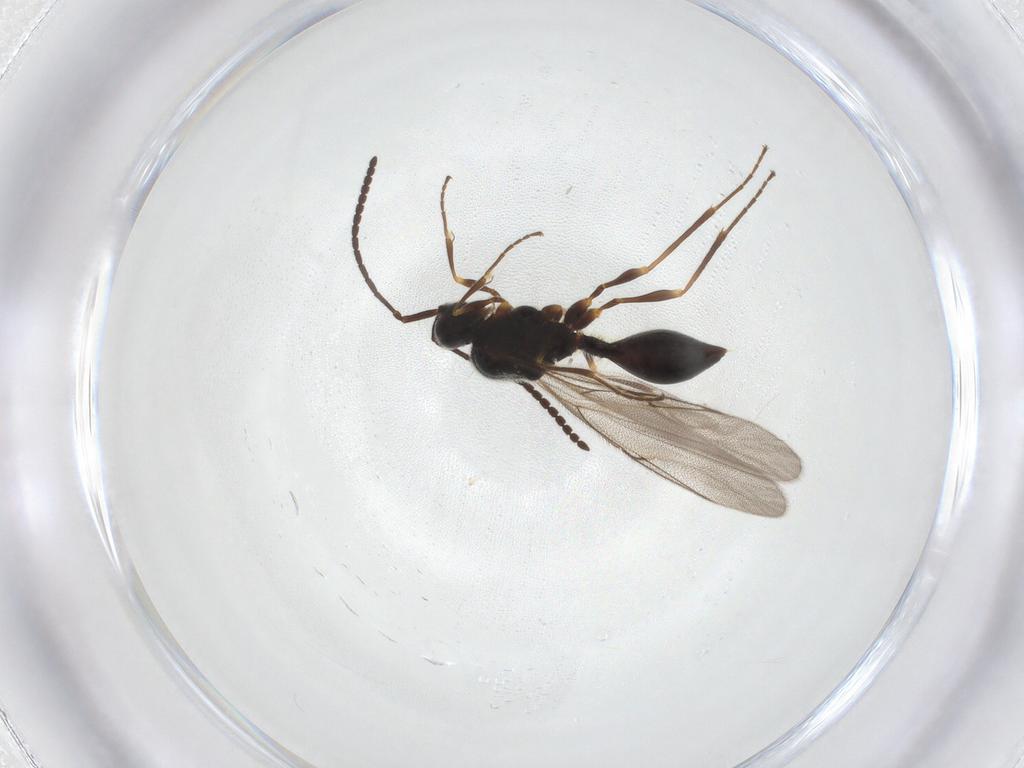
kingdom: Animalia
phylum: Arthropoda
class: Insecta
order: Hymenoptera
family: Diapriidae
